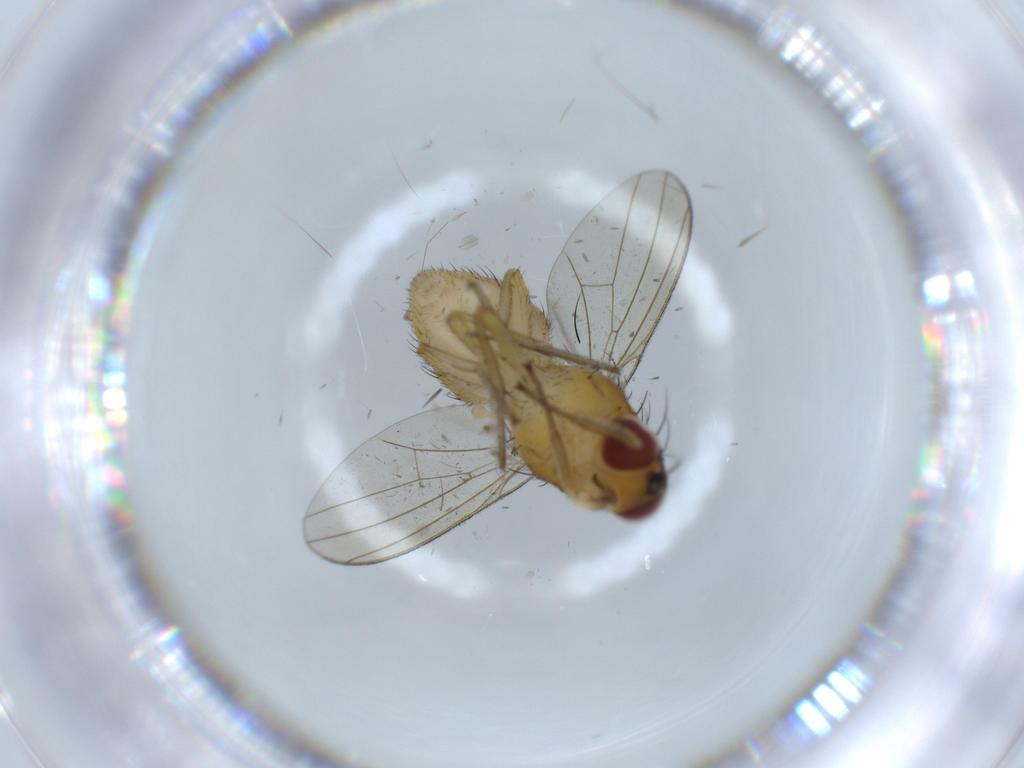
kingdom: Animalia
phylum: Arthropoda
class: Insecta
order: Diptera
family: Lauxaniidae
